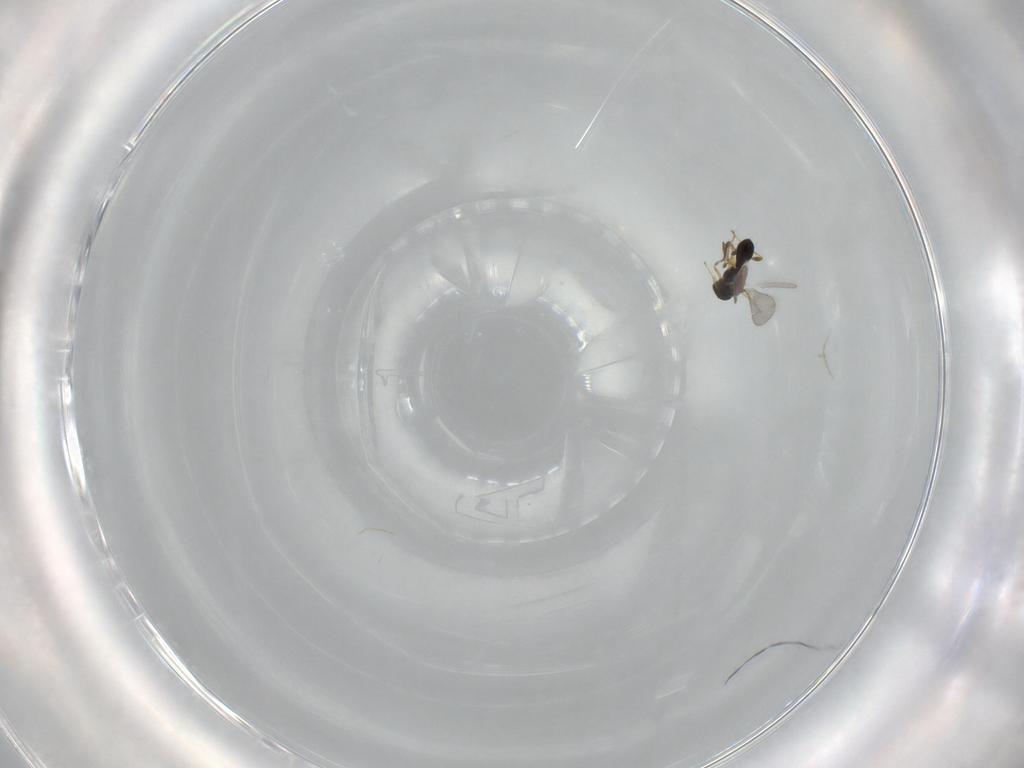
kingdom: Animalia
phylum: Arthropoda
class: Insecta
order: Hymenoptera
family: Platygastridae
